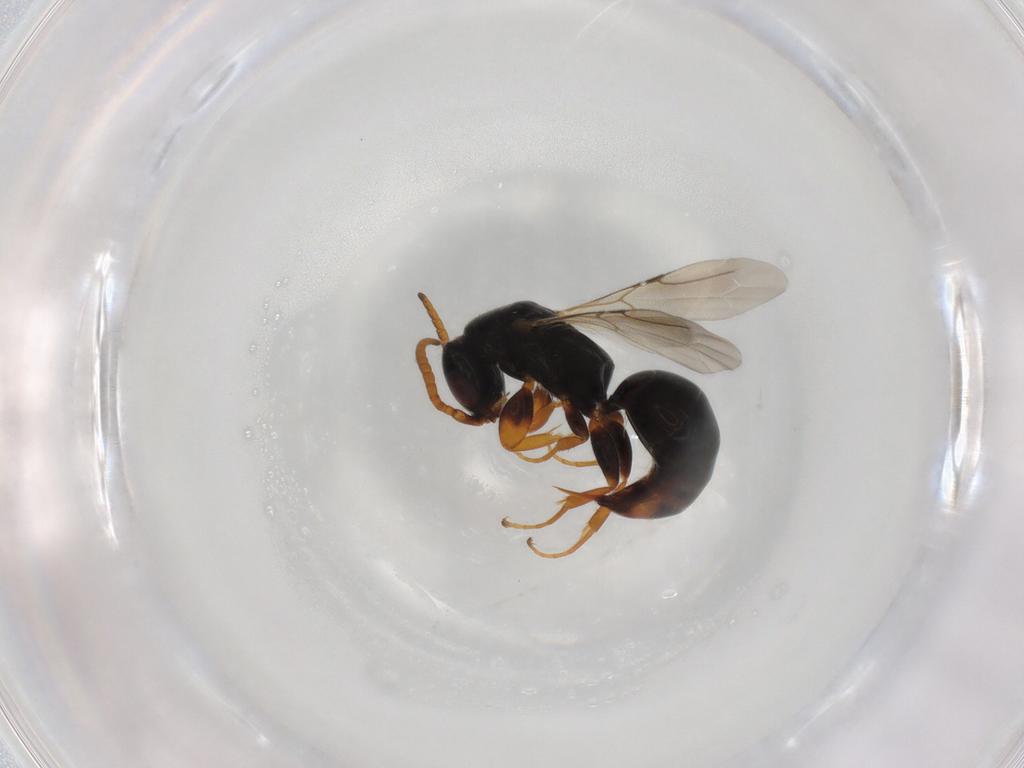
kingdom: Animalia
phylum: Arthropoda
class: Insecta
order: Hymenoptera
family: Bethylidae
